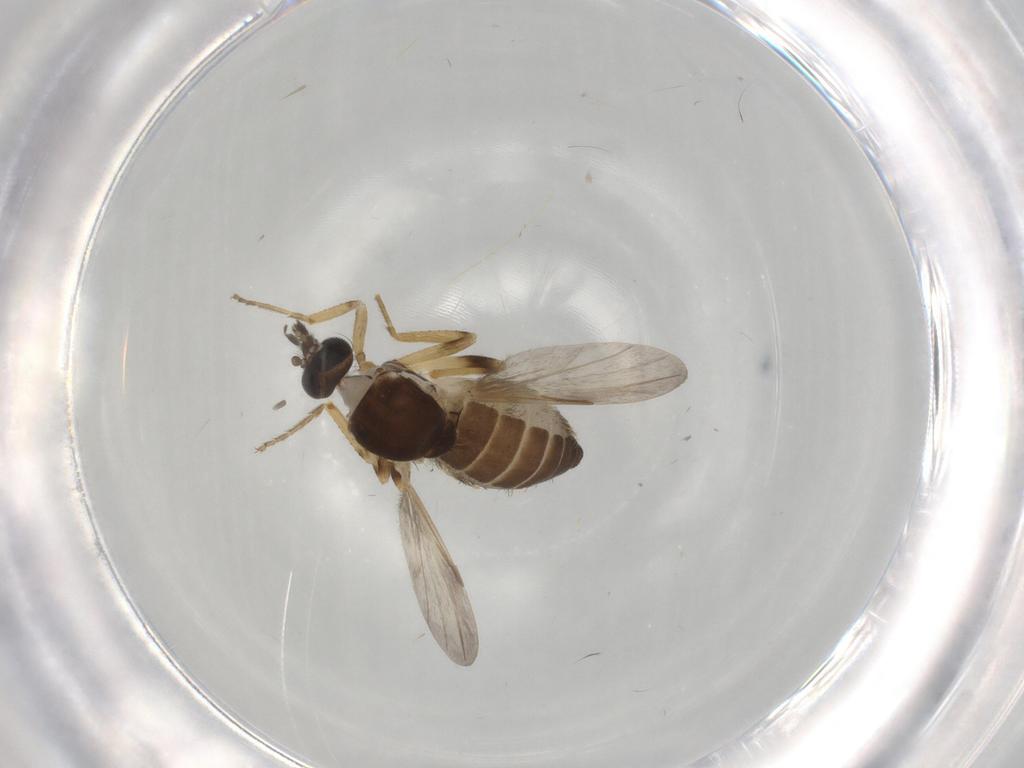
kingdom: Animalia
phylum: Arthropoda
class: Insecta
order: Diptera
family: Ceratopogonidae
